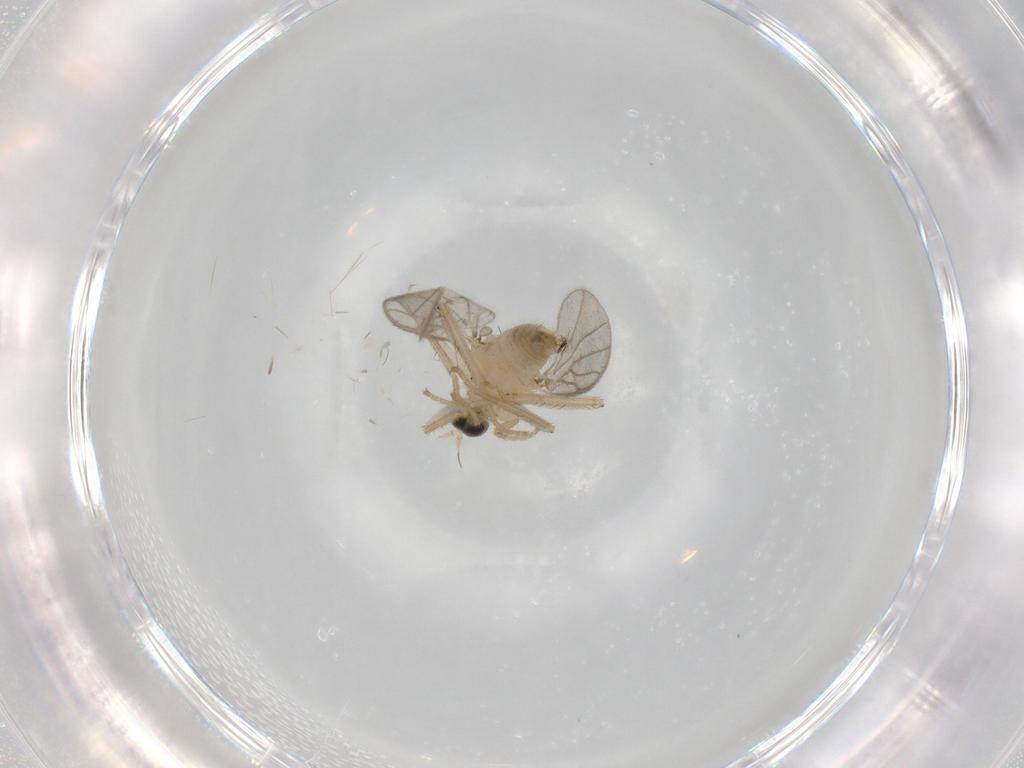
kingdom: Animalia
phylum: Arthropoda
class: Insecta
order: Diptera
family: Hybotidae
